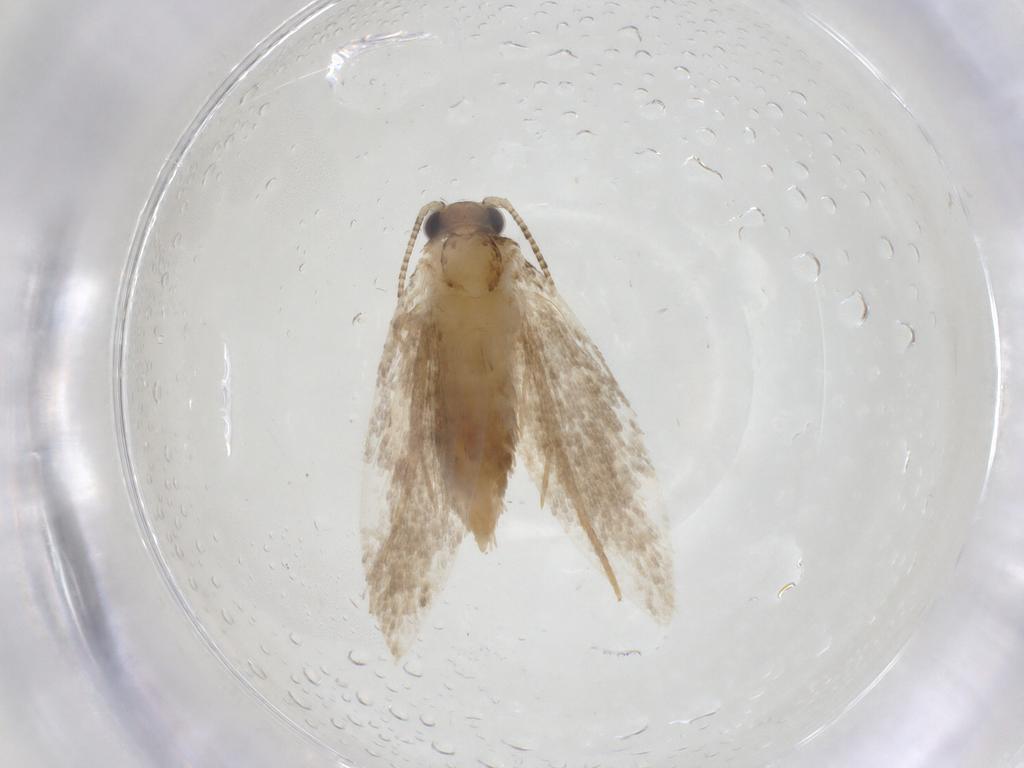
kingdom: Animalia
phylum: Arthropoda
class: Insecta
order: Lepidoptera
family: Tineidae
